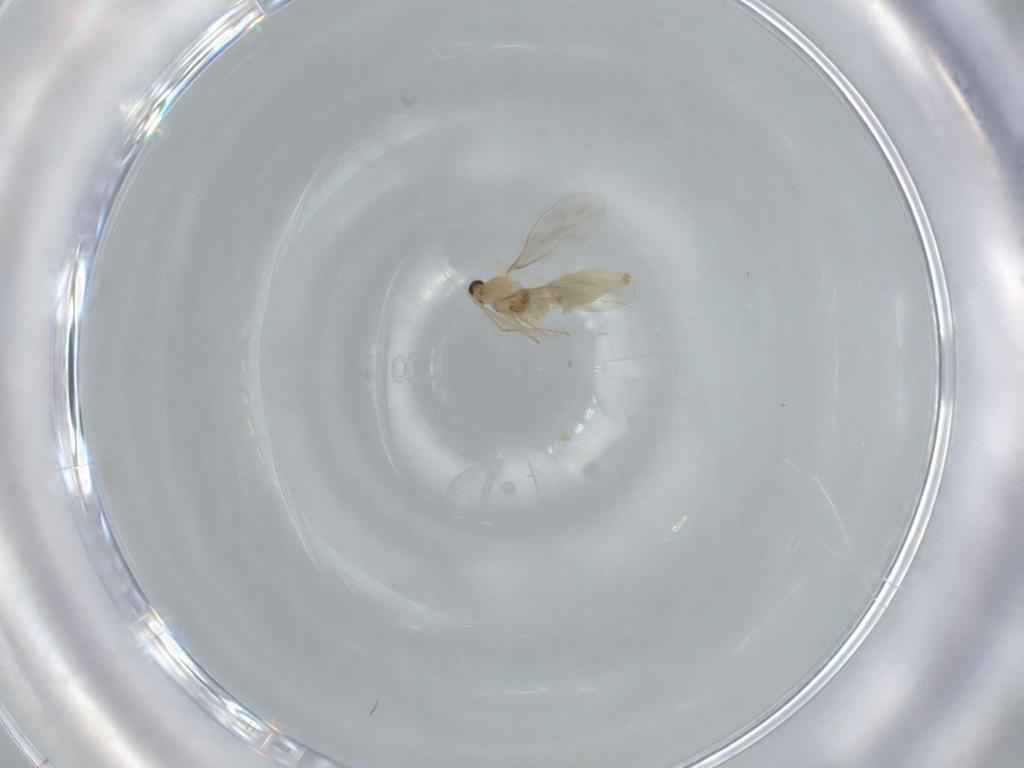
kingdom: Animalia
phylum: Arthropoda
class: Insecta
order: Diptera
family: Cecidomyiidae
